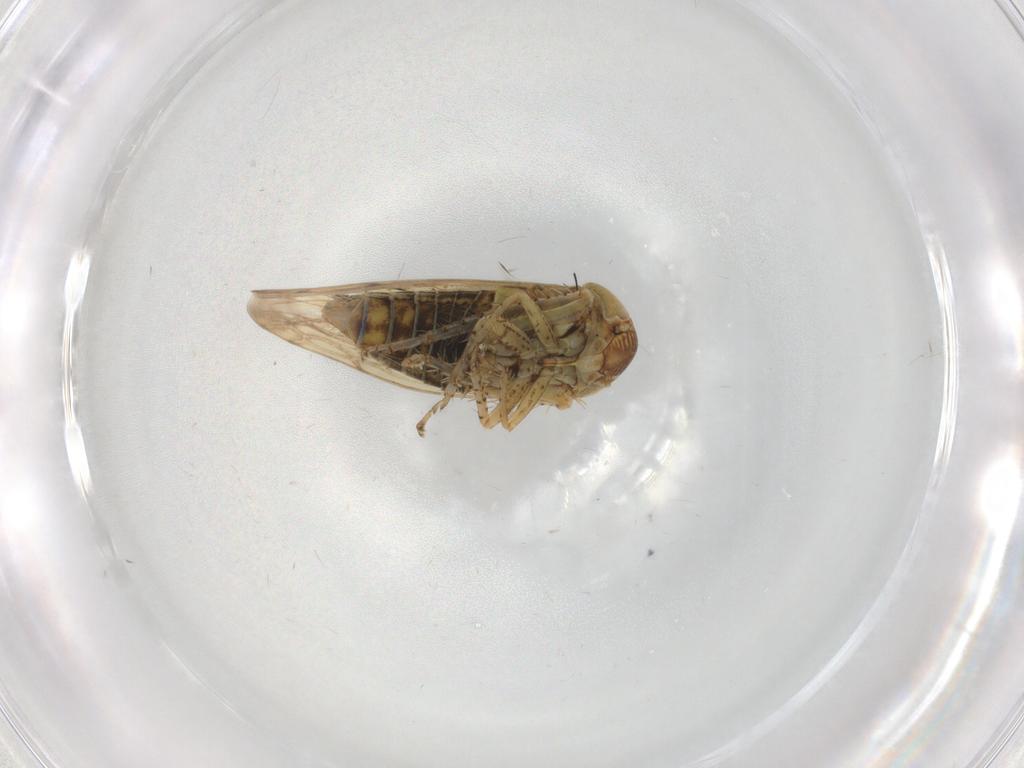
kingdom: Animalia
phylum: Arthropoda
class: Insecta
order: Hemiptera
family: Cicadellidae
